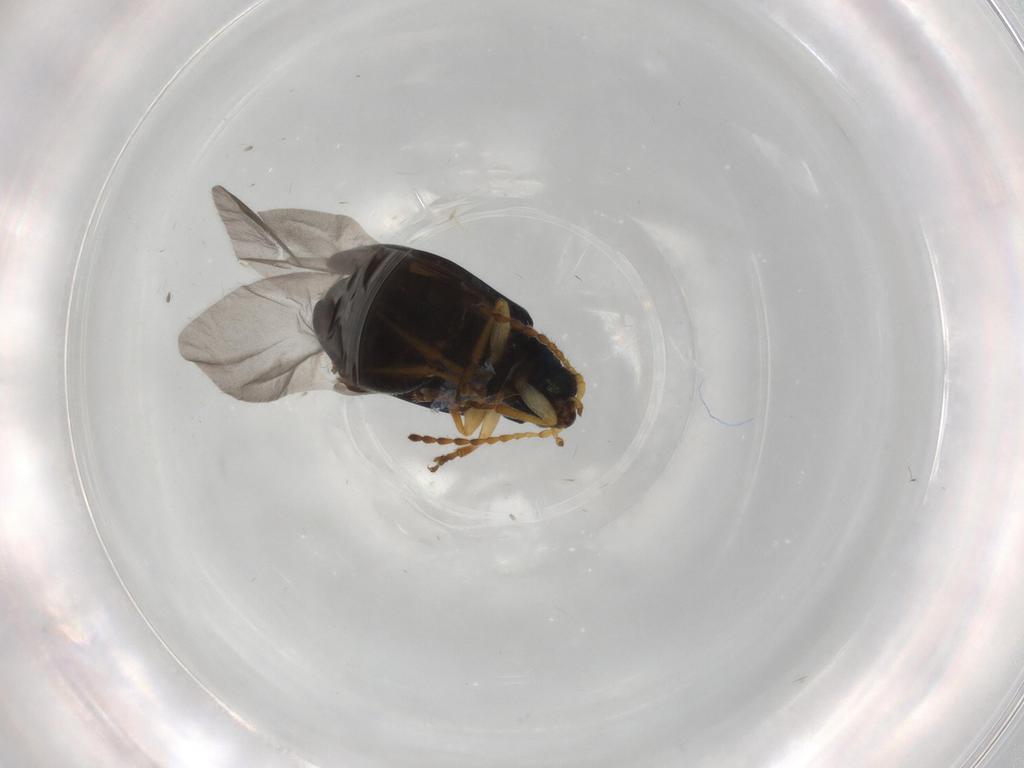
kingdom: Animalia
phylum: Arthropoda
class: Insecta
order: Coleoptera
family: Chrysomelidae
